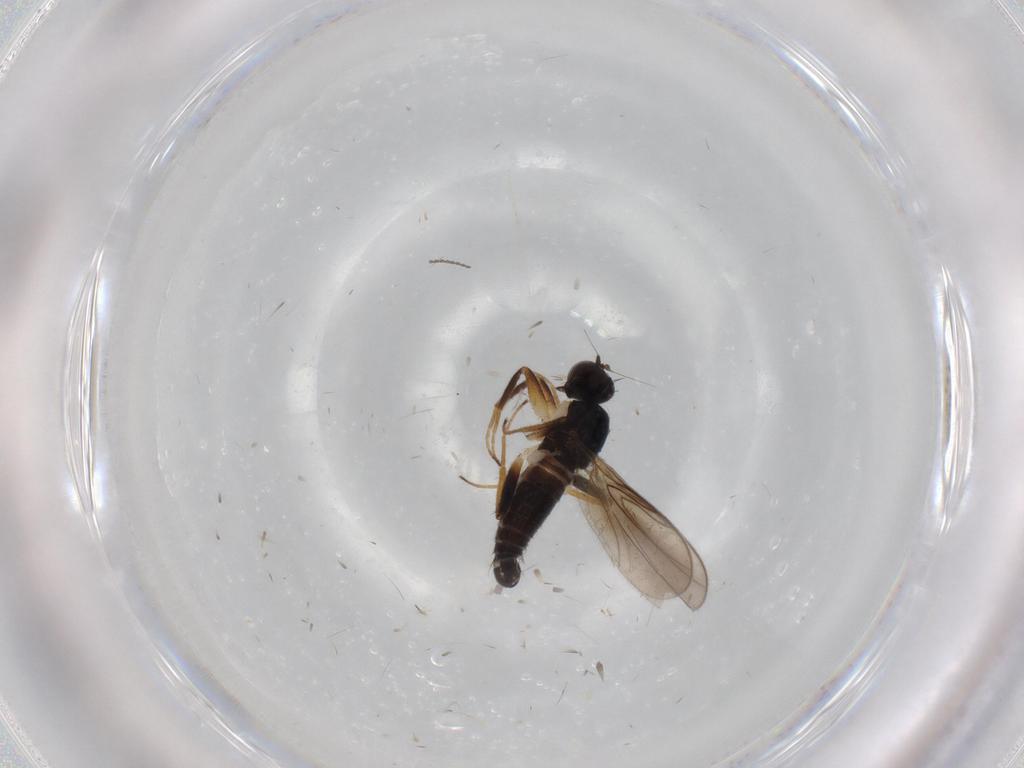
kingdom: Animalia
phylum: Arthropoda
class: Insecta
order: Diptera
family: Hybotidae
